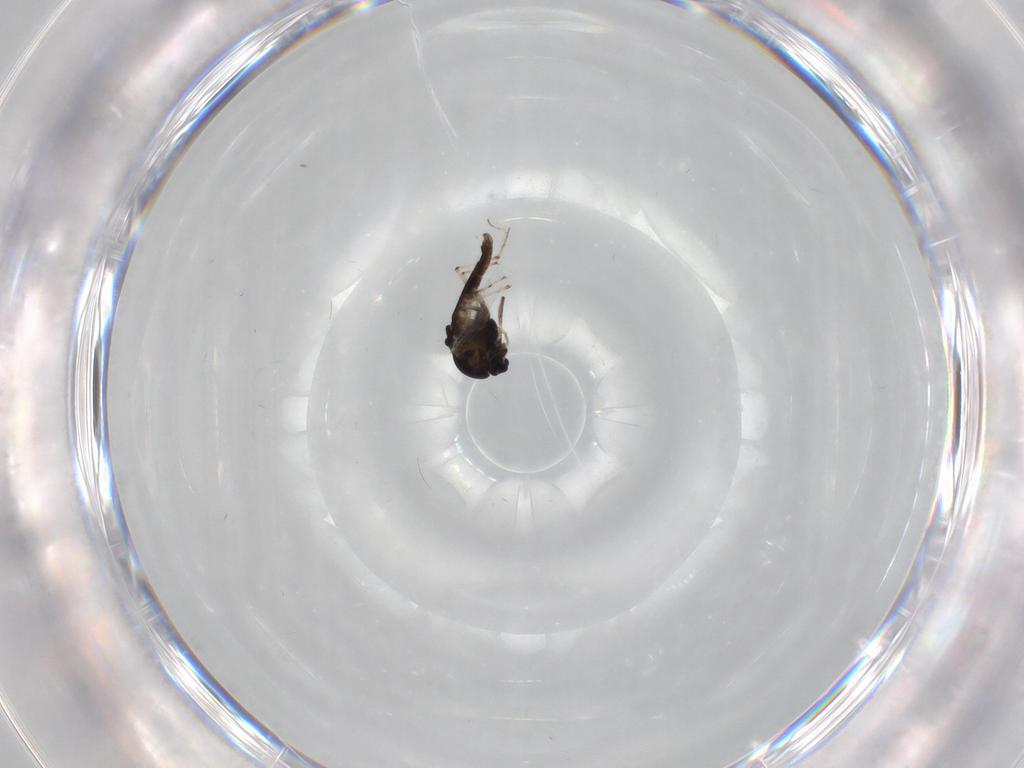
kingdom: Animalia
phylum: Arthropoda
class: Insecta
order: Diptera
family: Chironomidae
